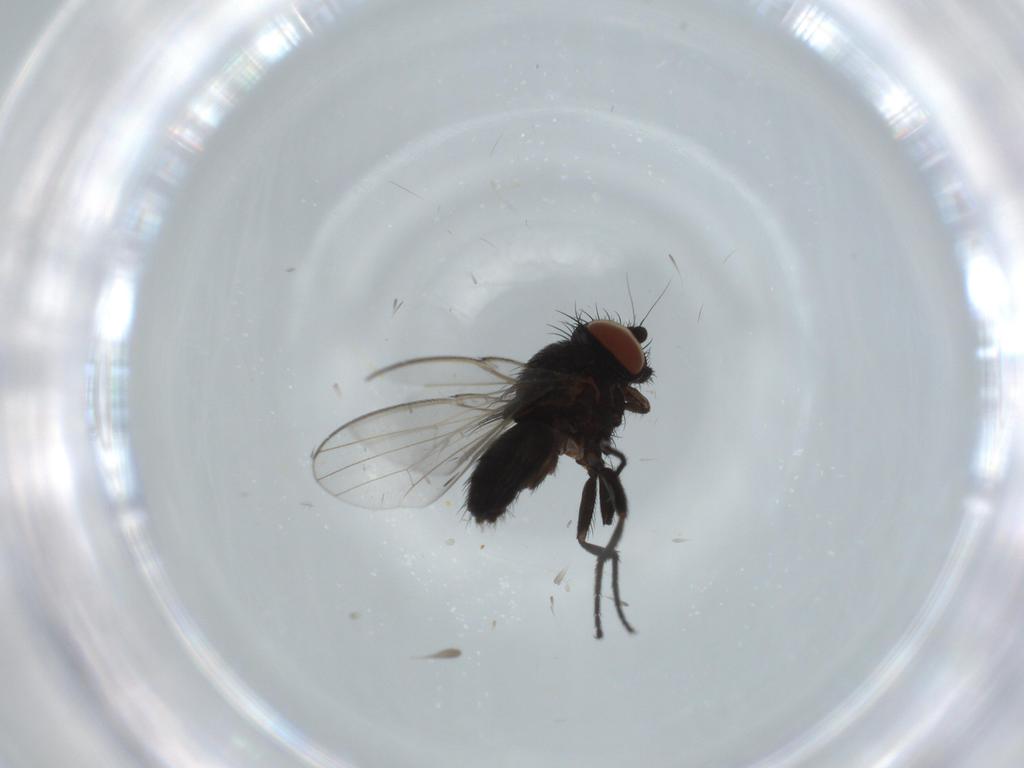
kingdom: Animalia
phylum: Arthropoda
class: Insecta
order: Diptera
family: Milichiidae
